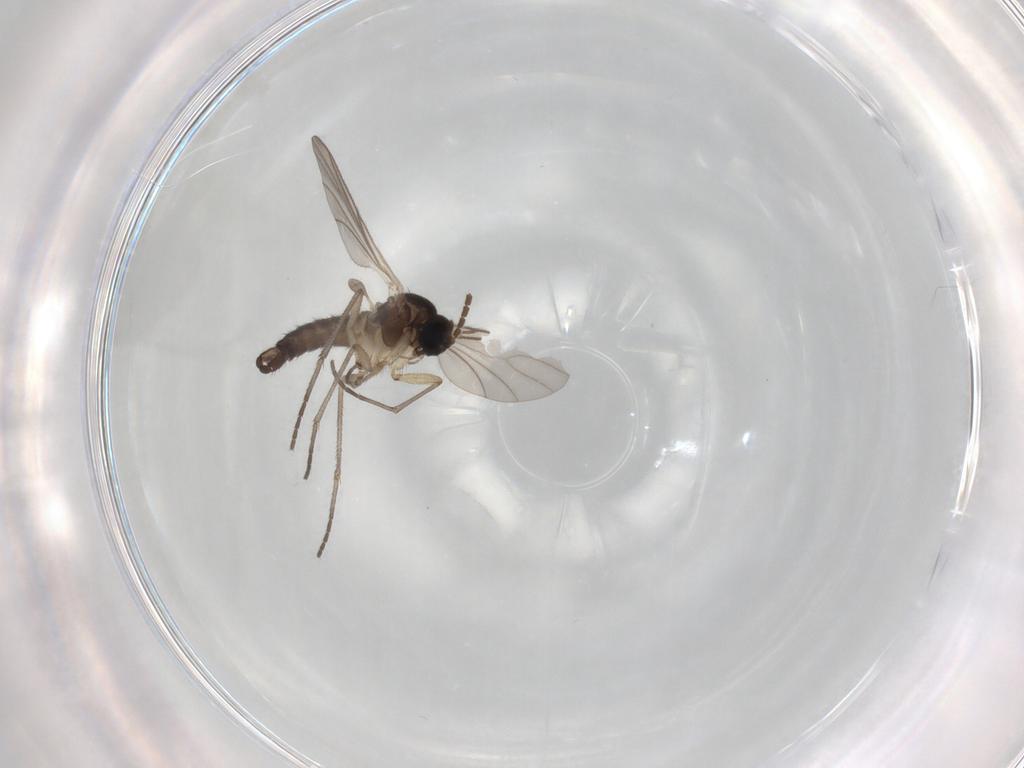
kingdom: Animalia
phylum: Arthropoda
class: Insecta
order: Diptera
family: Sciaridae
